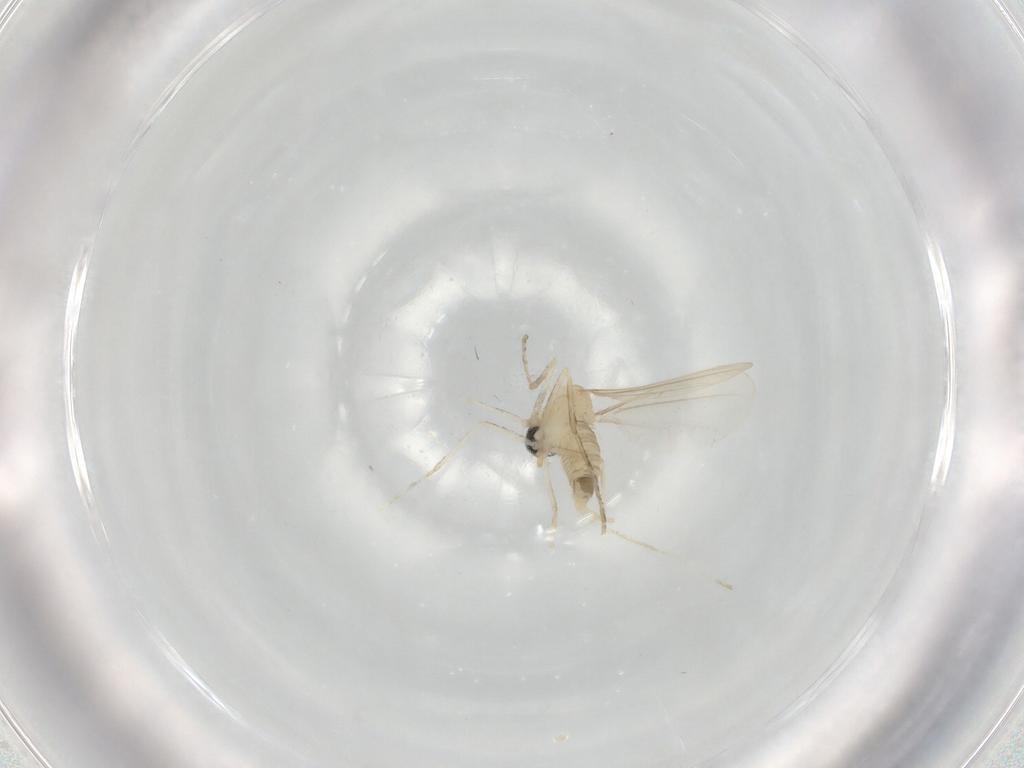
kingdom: Animalia
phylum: Arthropoda
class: Insecta
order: Diptera
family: Cecidomyiidae
